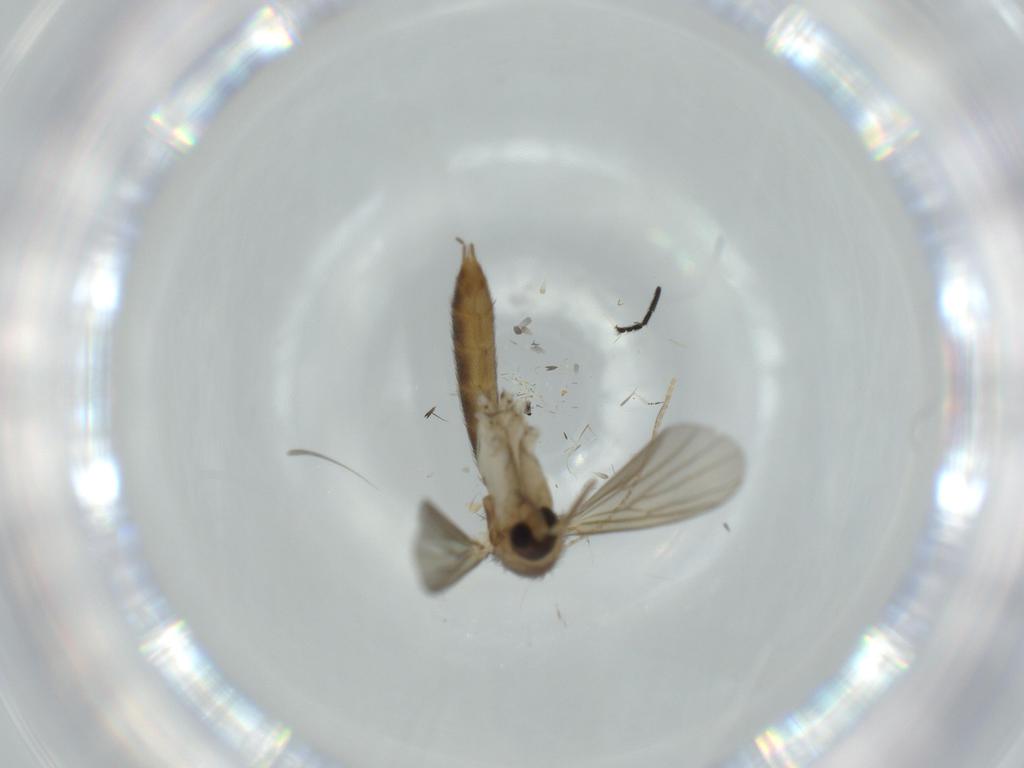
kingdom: Animalia
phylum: Arthropoda
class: Insecta
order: Diptera
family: Mycetophilidae
